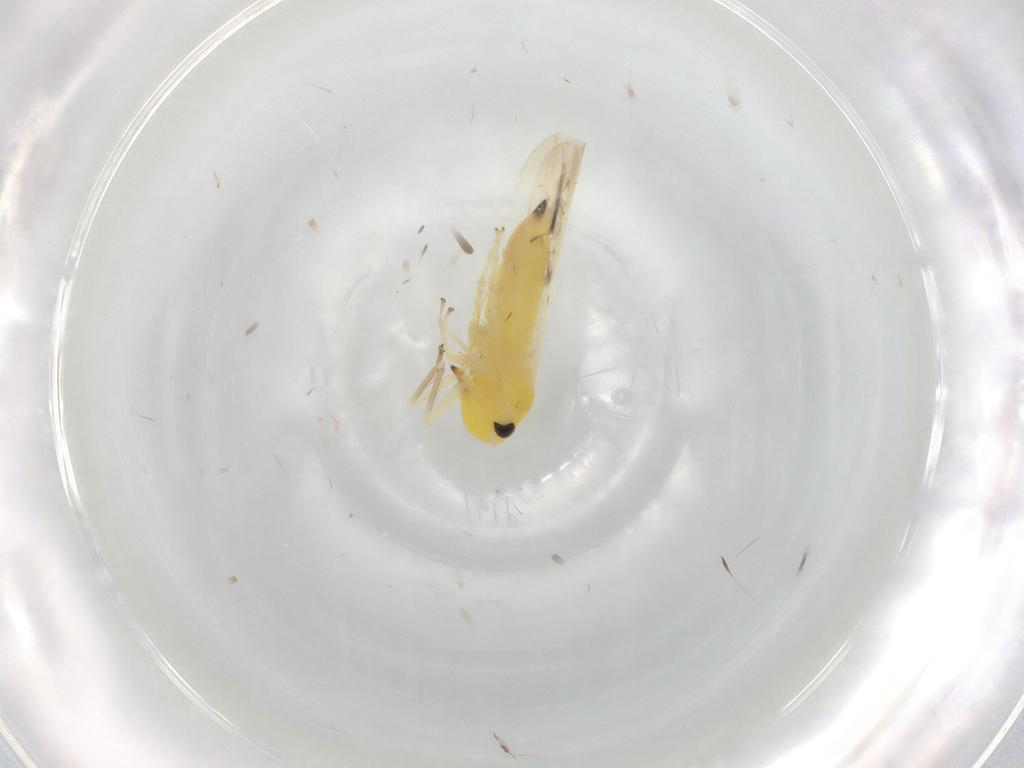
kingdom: Animalia
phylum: Arthropoda
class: Insecta
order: Hemiptera
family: Cicadellidae
